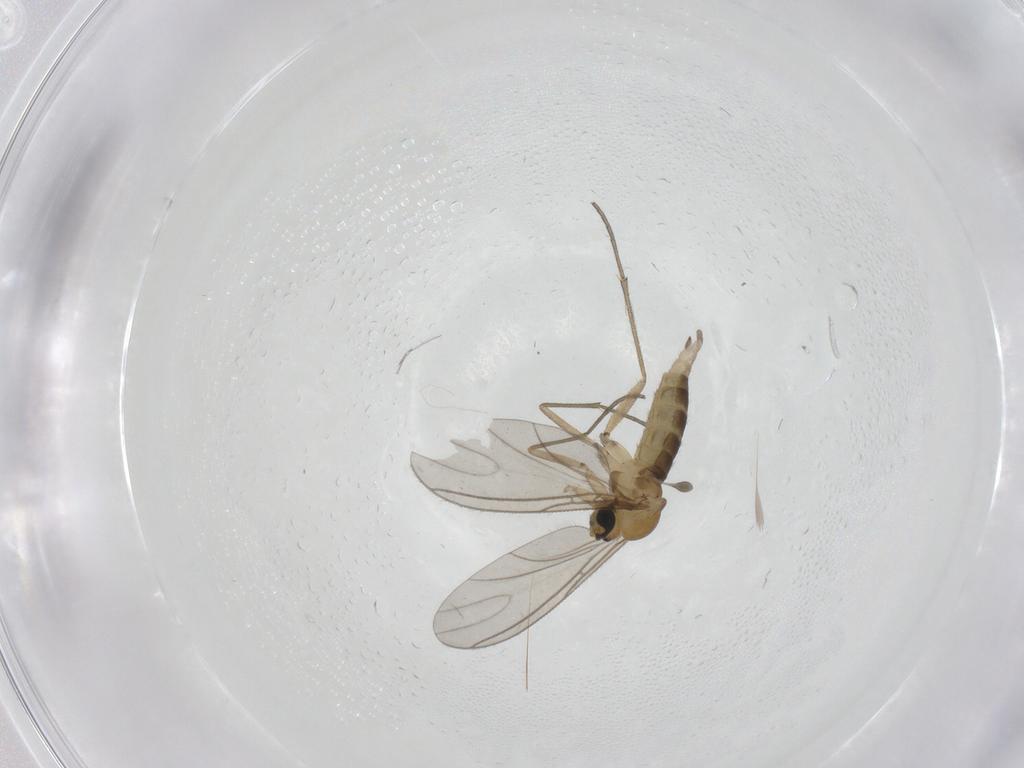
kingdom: Animalia
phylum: Arthropoda
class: Insecta
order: Diptera
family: Sciaridae
